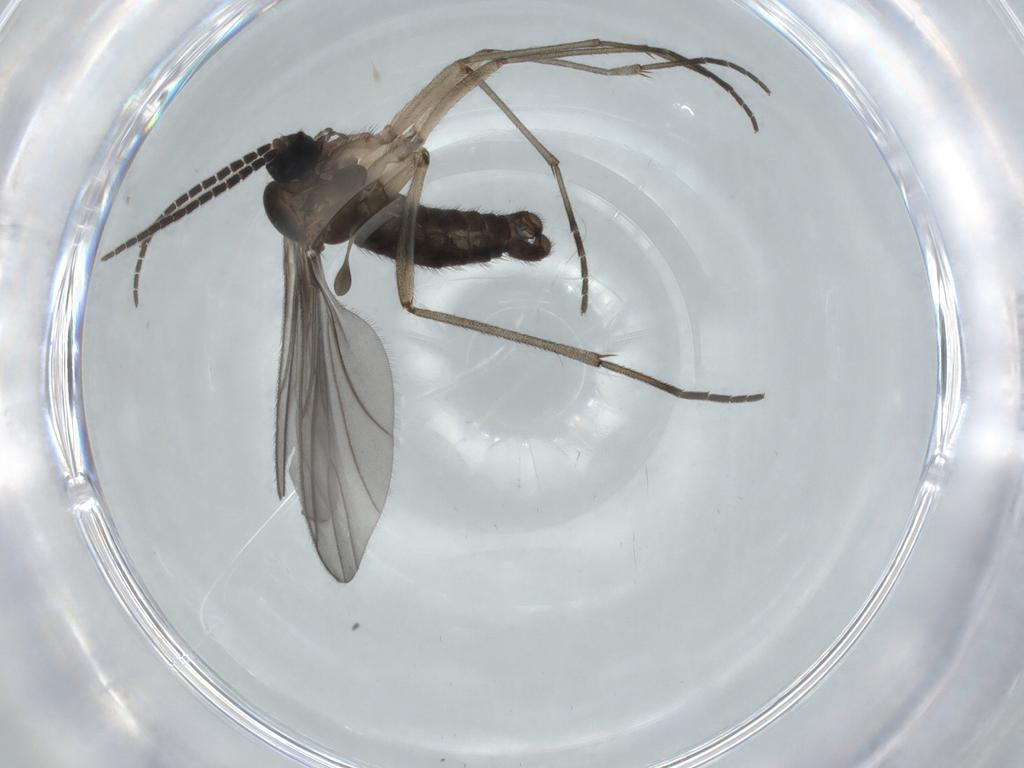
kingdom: Animalia
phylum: Arthropoda
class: Insecta
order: Diptera
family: Sciaridae
